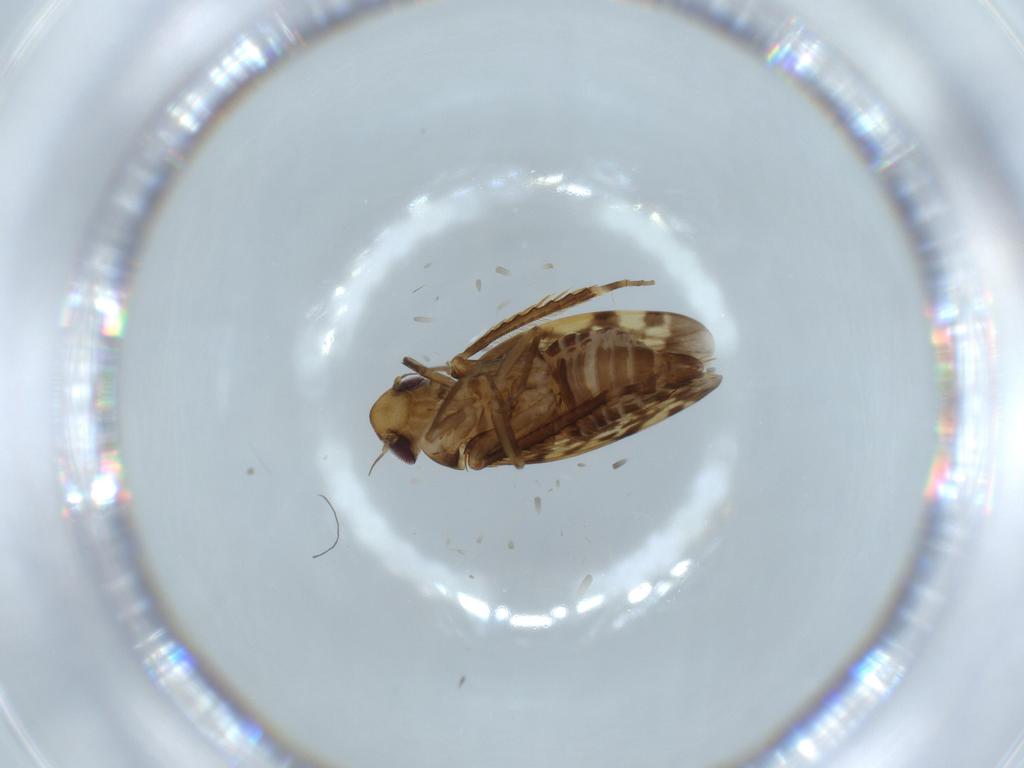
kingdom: Animalia
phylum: Arthropoda
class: Insecta
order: Hemiptera
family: Cicadellidae
